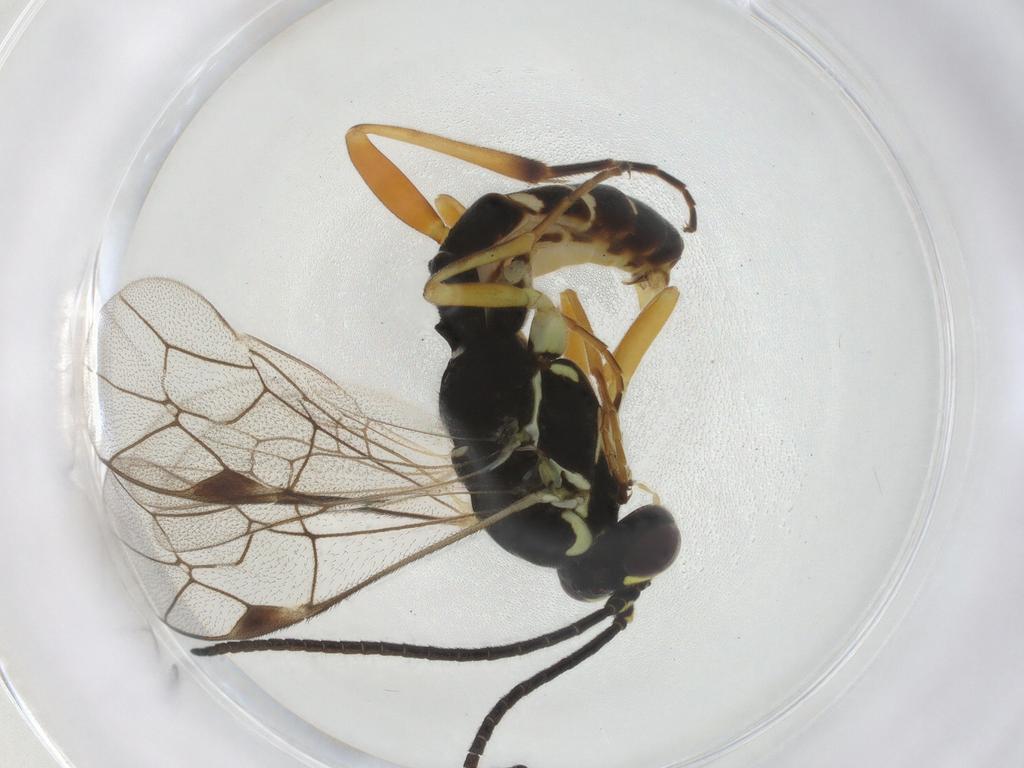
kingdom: Animalia
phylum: Arthropoda
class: Insecta
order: Hymenoptera
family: Ichneumonidae
